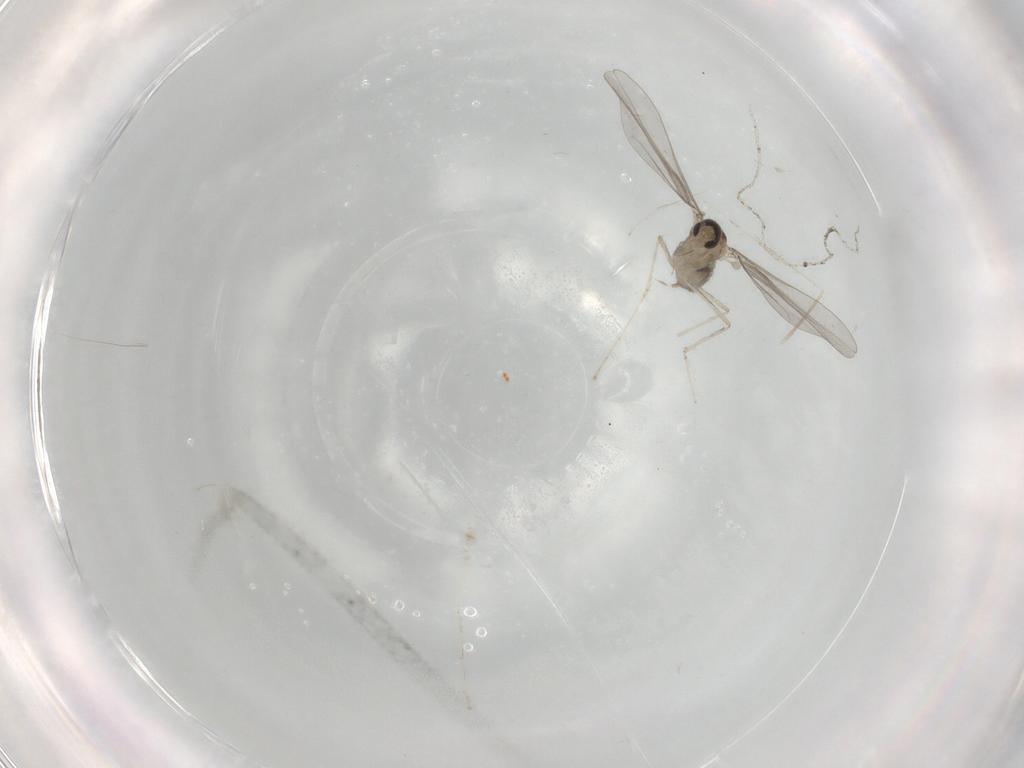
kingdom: Animalia
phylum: Arthropoda
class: Insecta
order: Diptera
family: Cecidomyiidae
